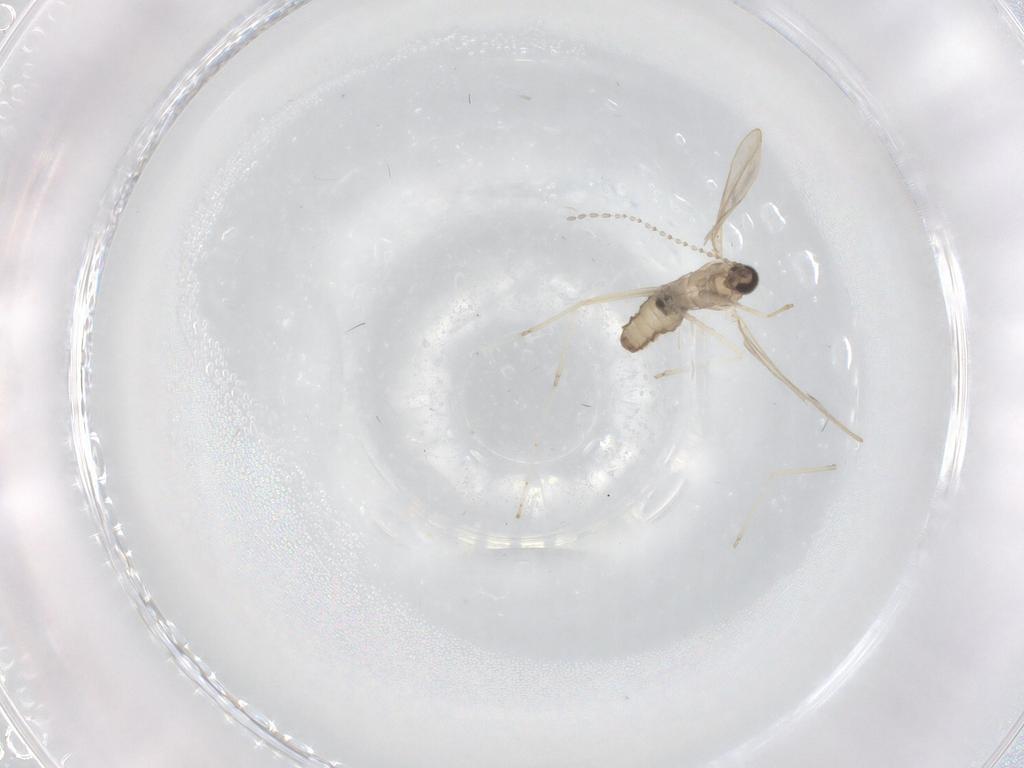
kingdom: Animalia
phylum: Arthropoda
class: Insecta
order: Diptera
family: Cecidomyiidae
